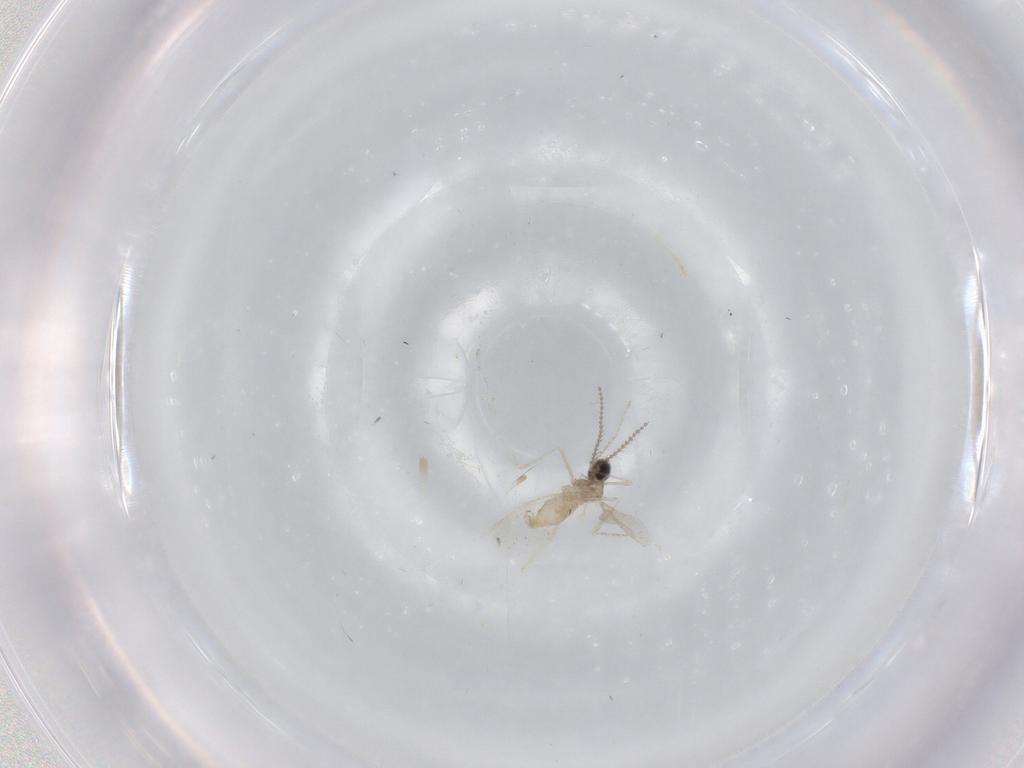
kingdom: Animalia
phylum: Arthropoda
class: Insecta
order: Diptera
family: Cecidomyiidae
